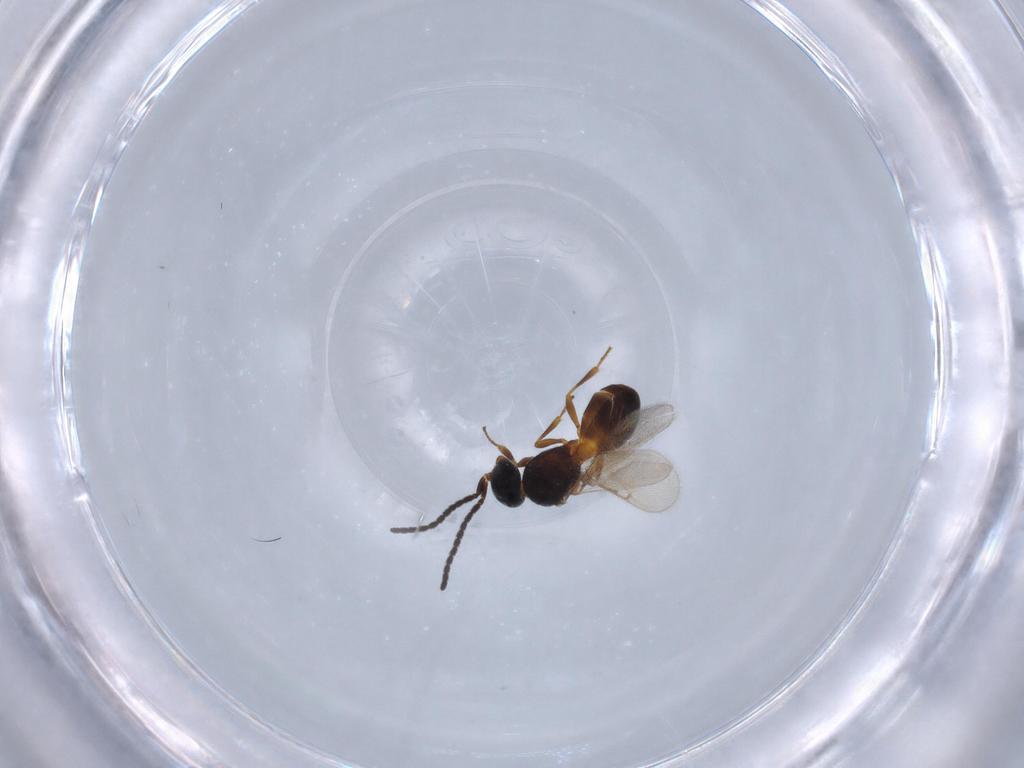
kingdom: Animalia
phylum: Arthropoda
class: Insecta
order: Hymenoptera
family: Scelionidae
